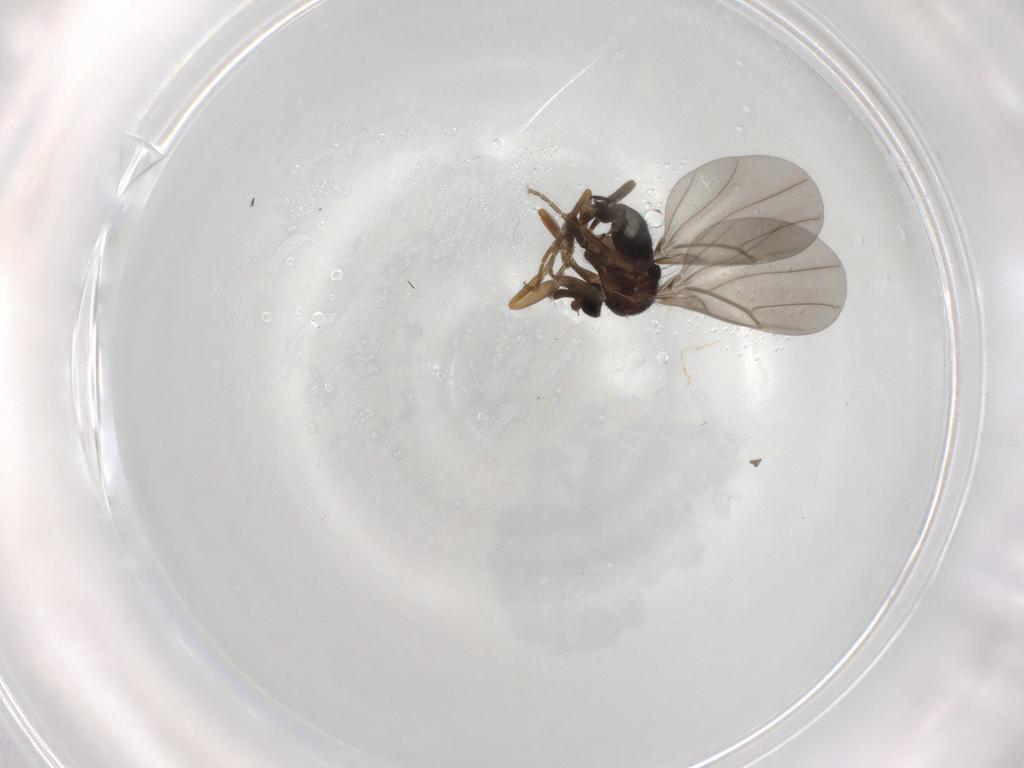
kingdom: Animalia
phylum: Arthropoda
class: Insecta
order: Diptera
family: Phoridae
